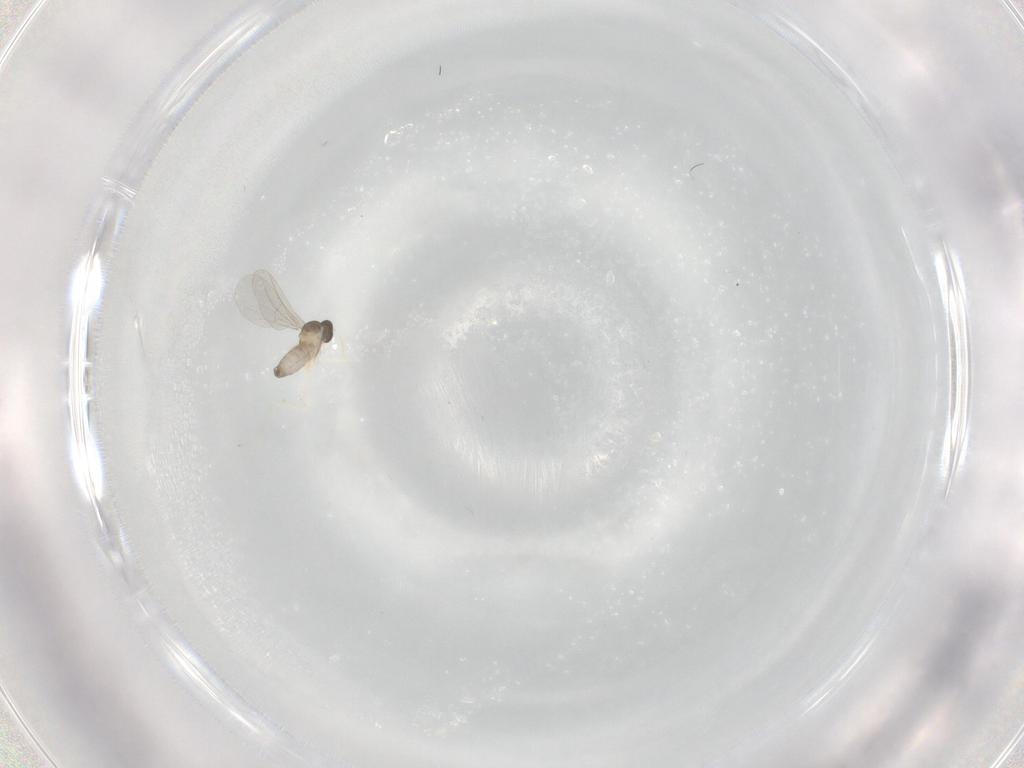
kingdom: Animalia
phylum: Arthropoda
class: Insecta
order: Diptera
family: Cecidomyiidae
